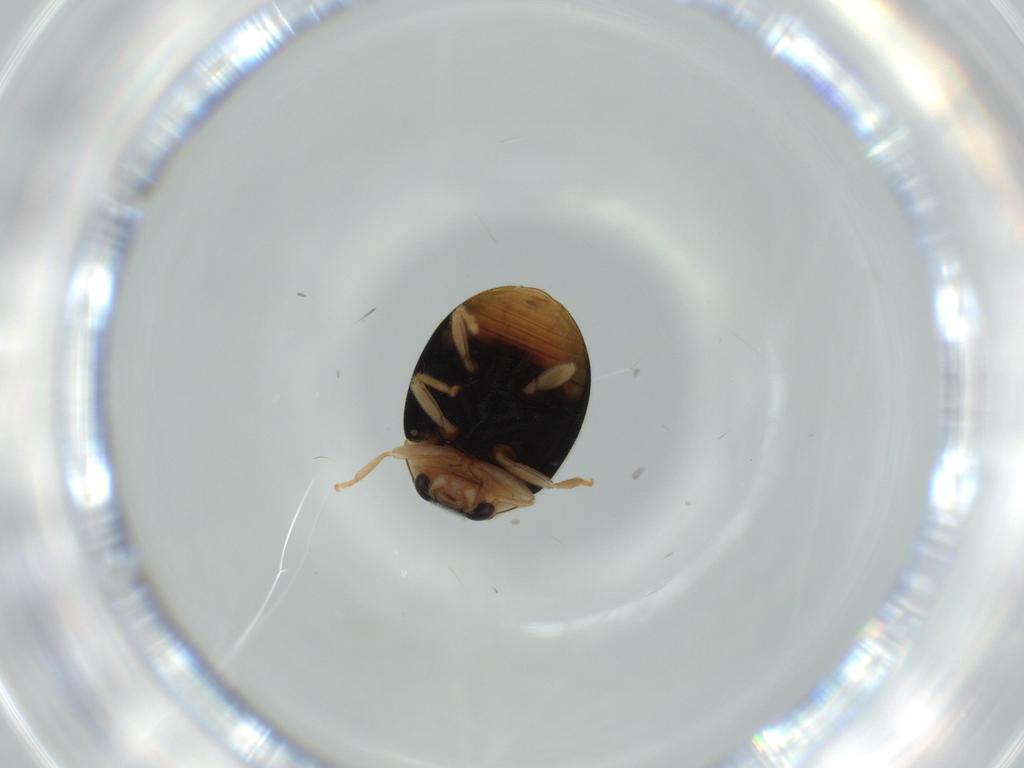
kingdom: Animalia
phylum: Arthropoda
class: Insecta
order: Coleoptera
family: Coccinellidae
